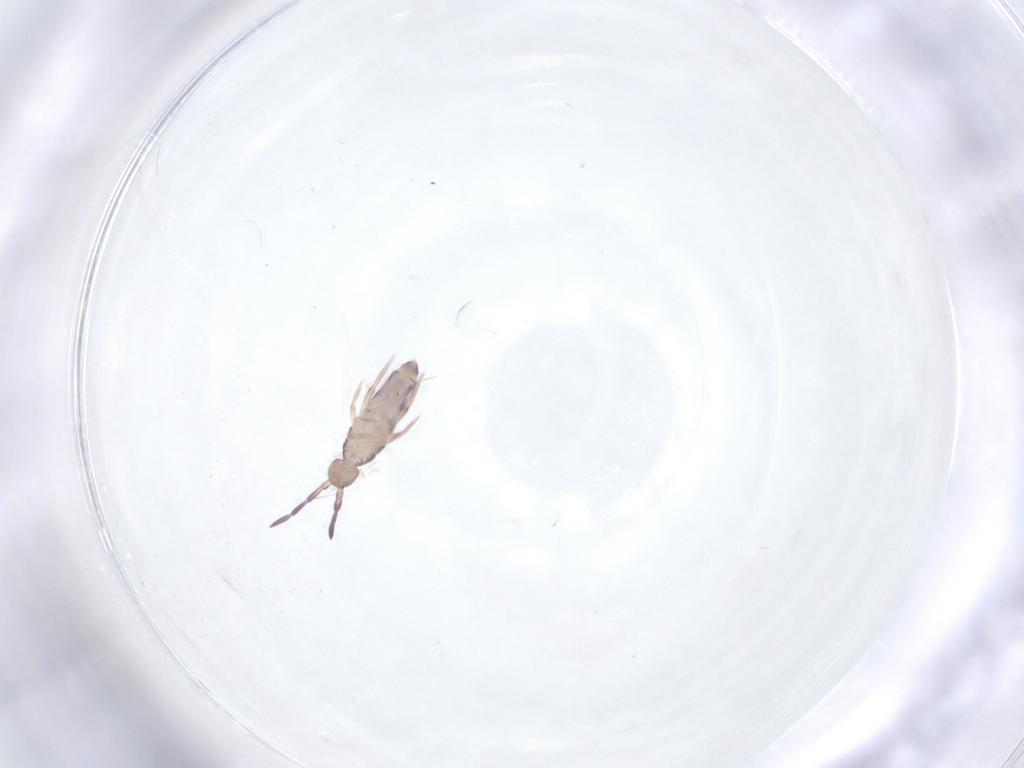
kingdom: Animalia
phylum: Arthropoda
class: Collembola
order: Entomobryomorpha
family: Entomobryidae
